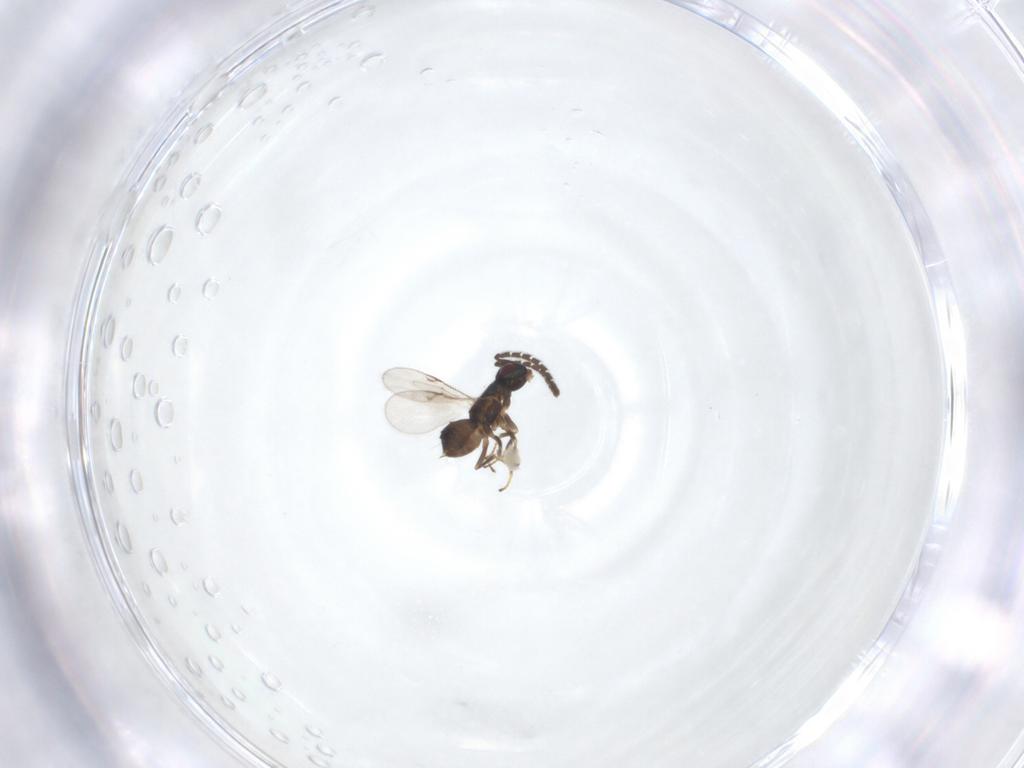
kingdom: Animalia
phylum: Arthropoda
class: Insecta
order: Hymenoptera
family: Encyrtidae
